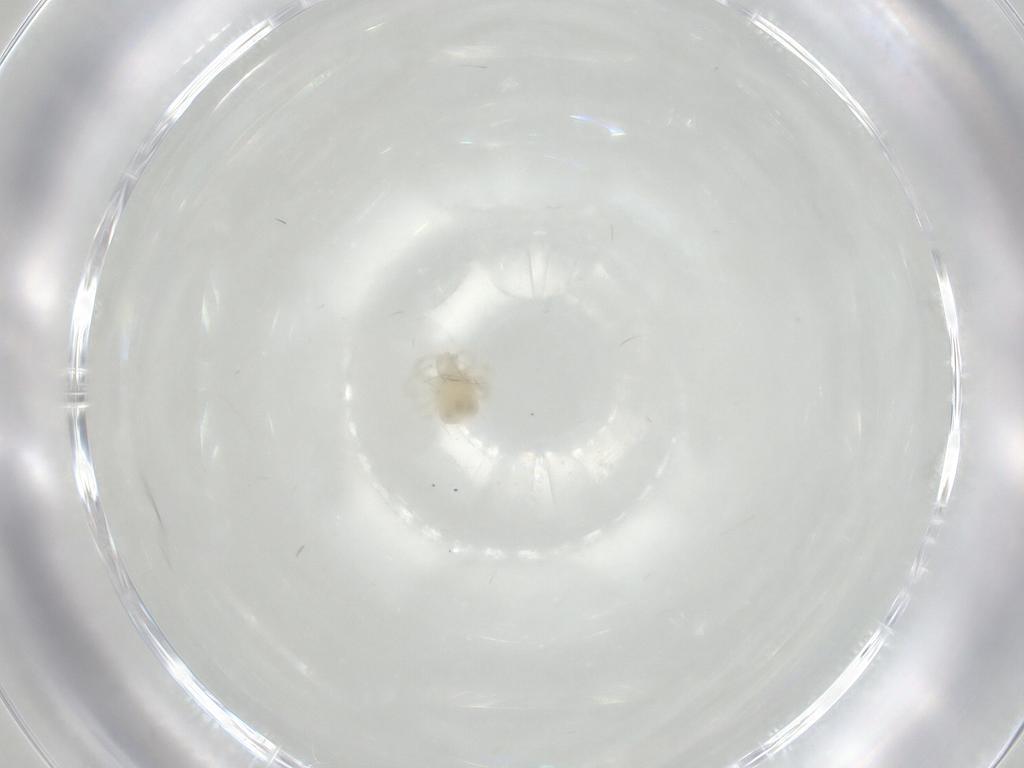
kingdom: Animalia
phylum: Arthropoda
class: Arachnida
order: Trombidiformes
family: Anystidae
